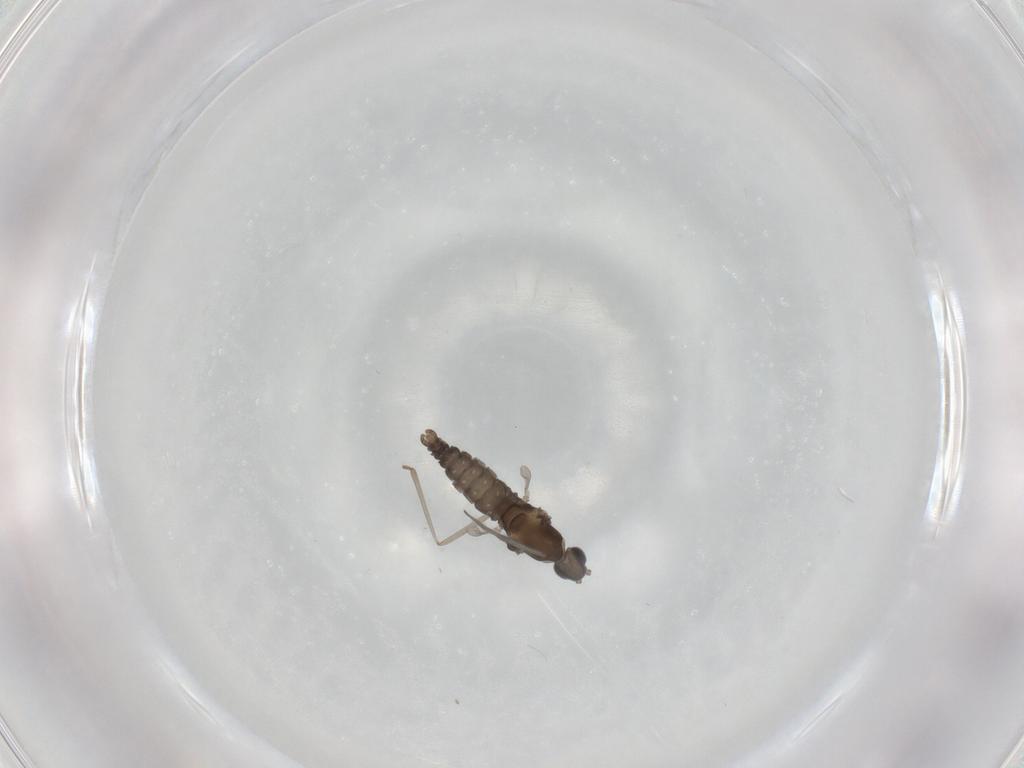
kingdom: Animalia
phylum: Arthropoda
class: Insecta
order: Diptera
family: Cecidomyiidae
